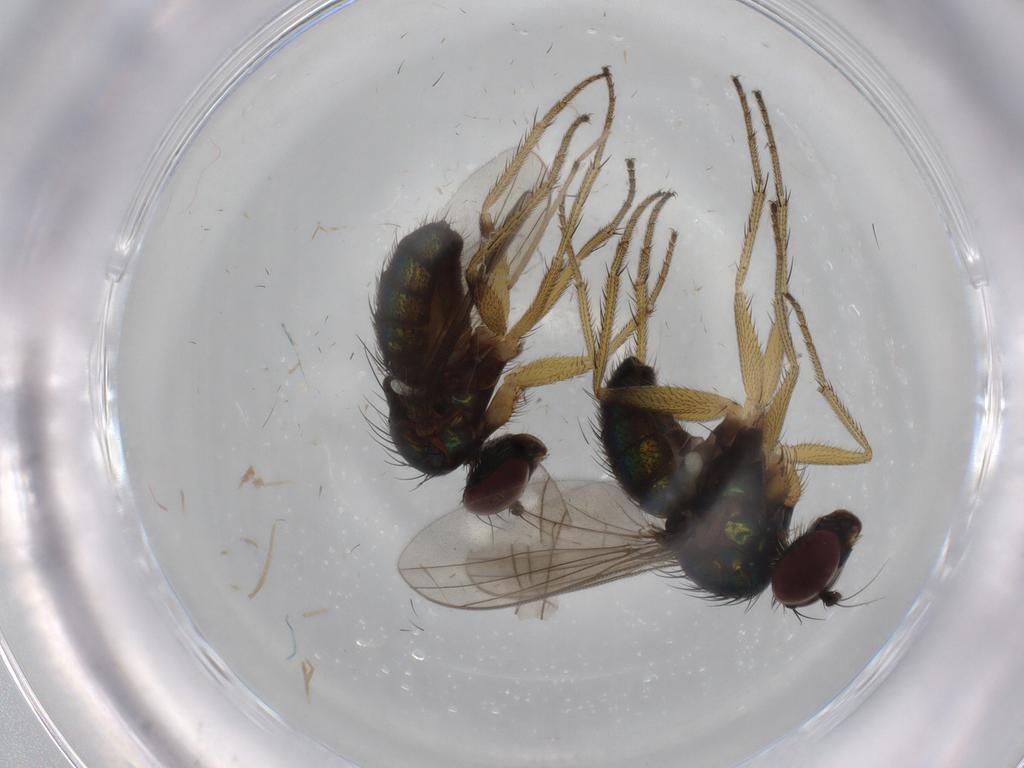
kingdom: Animalia
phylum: Arthropoda
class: Insecta
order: Diptera
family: Dolichopodidae
